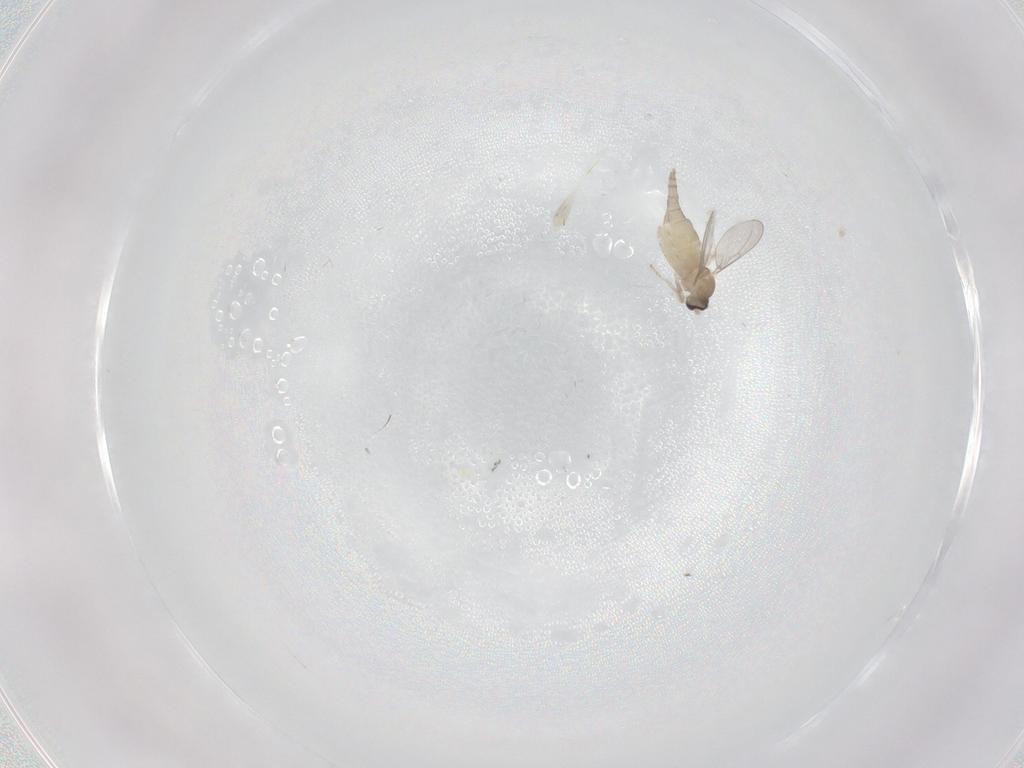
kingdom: Animalia
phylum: Arthropoda
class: Insecta
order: Diptera
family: Cecidomyiidae
